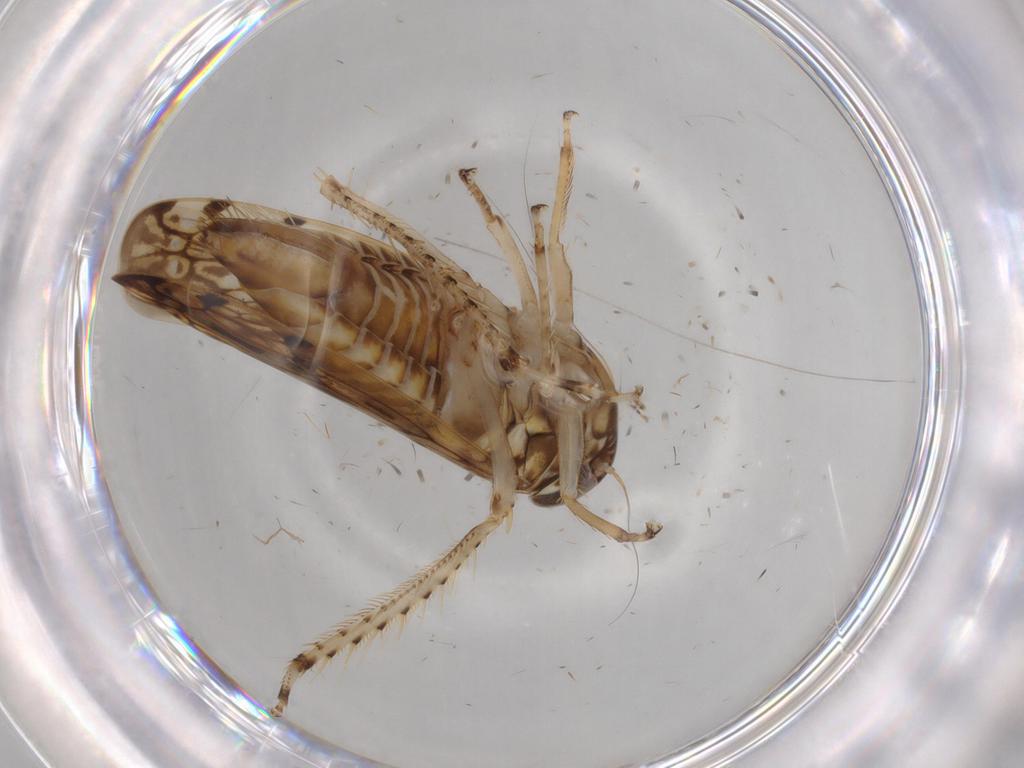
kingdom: Animalia
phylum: Arthropoda
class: Insecta
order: Hemiptera
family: Cicadellidae
